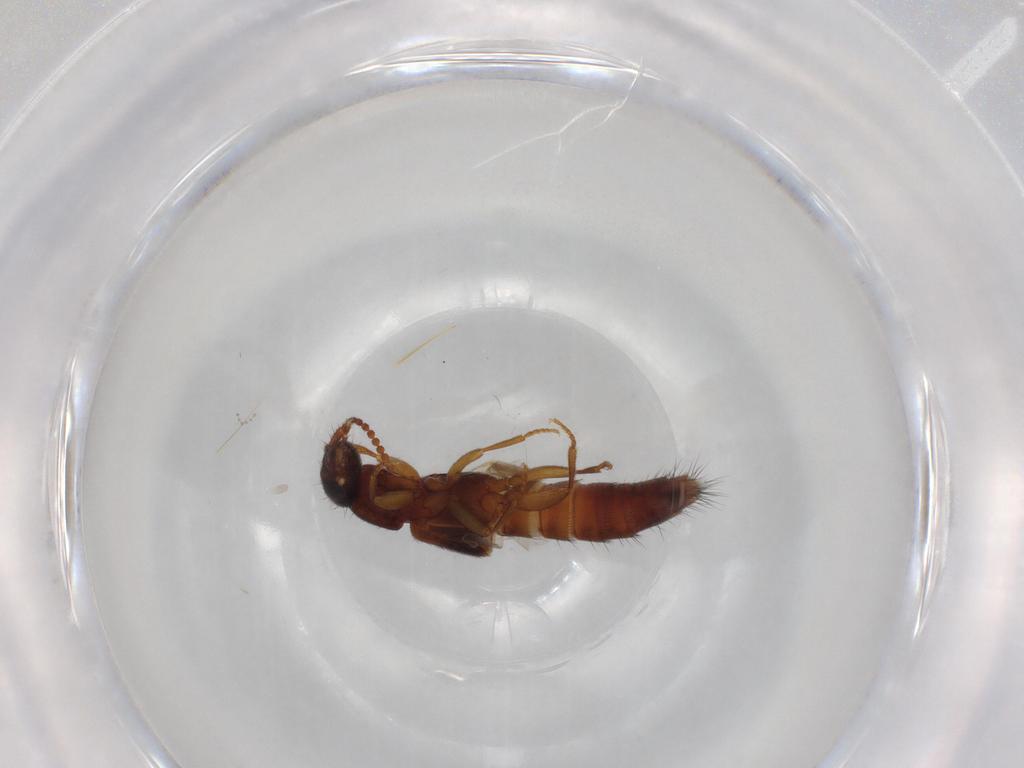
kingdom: Animalia
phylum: Arthropoda
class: Insecta
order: Coleoptera
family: Staphylinidae
